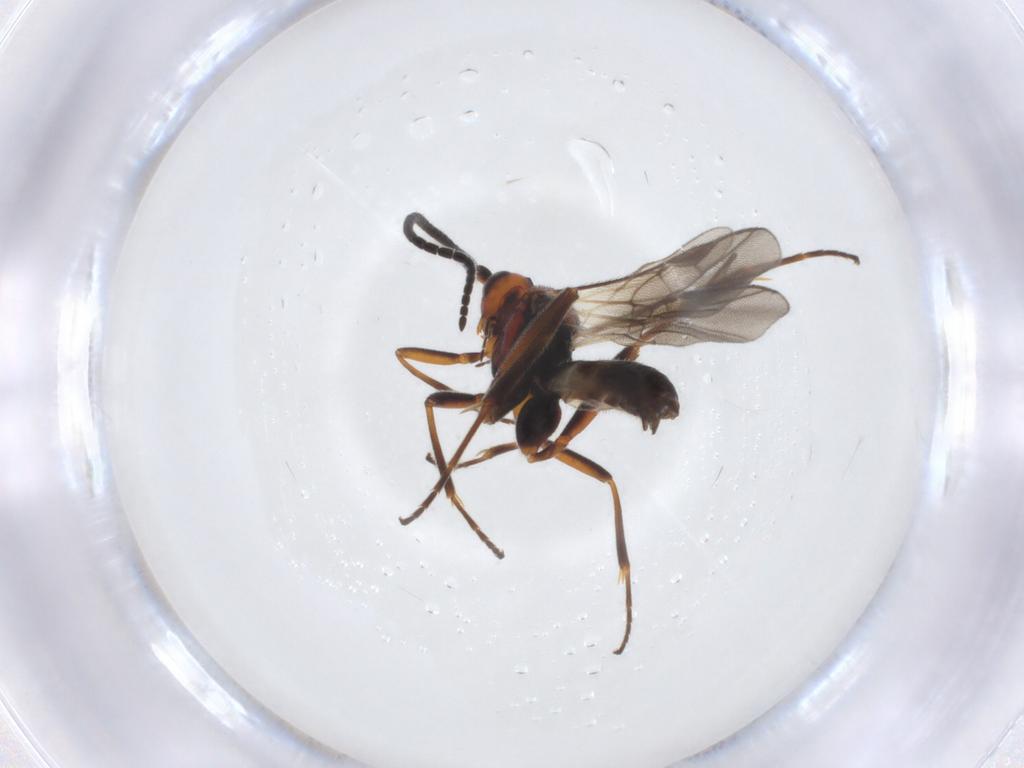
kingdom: Animalia
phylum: Arthropoda
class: Insecta
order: Hymenoptera
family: Braconidae
